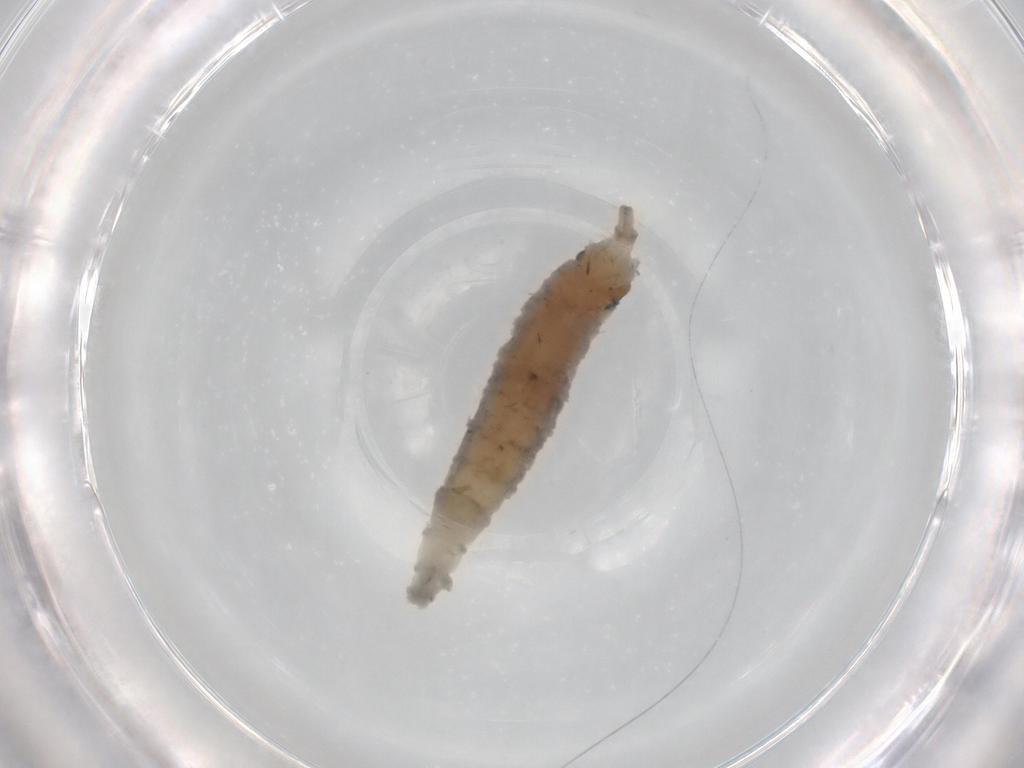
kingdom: Animalia
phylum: Arthropoda
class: Insecta
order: Diptera
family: Drosophilidae
